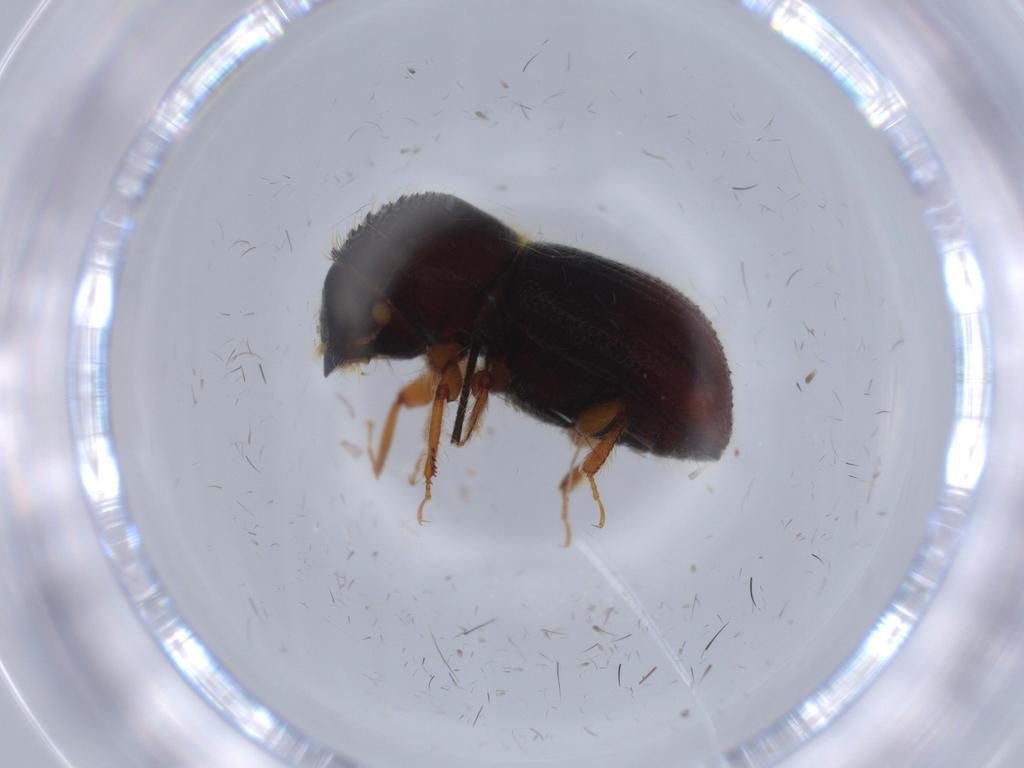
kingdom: Animalia
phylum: Arthropoda
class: Insecta
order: Coleoptera
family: Curculionidae
